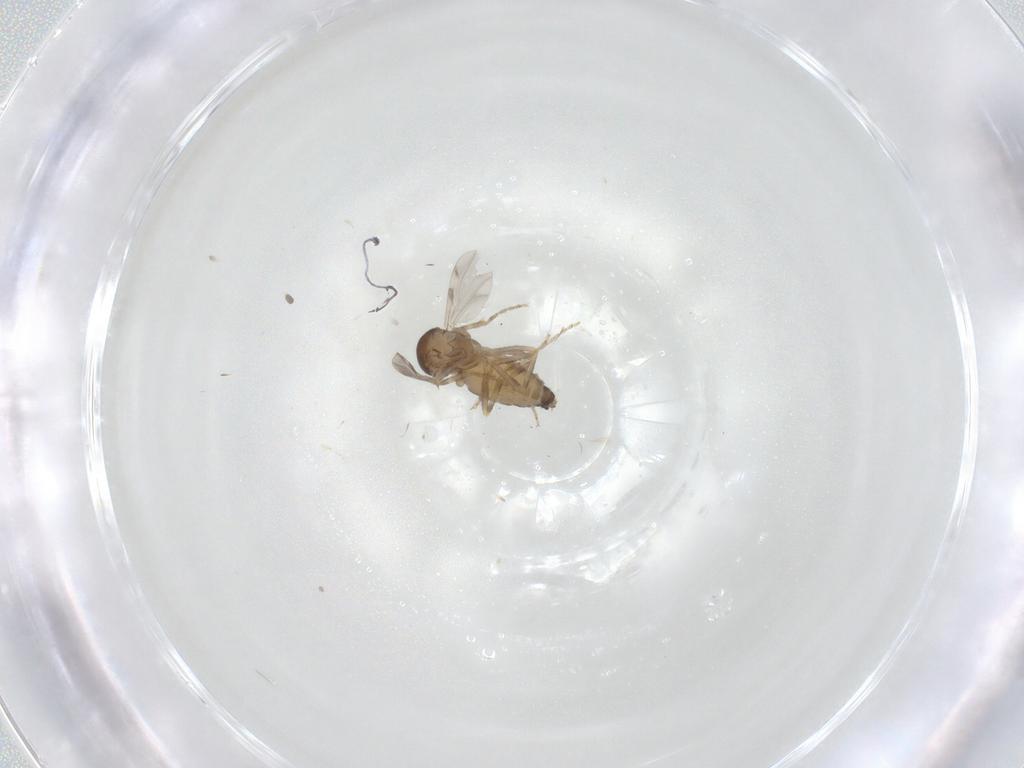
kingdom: Animalia
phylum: Arthropoda
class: Insecta
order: Diptera
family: Ceratopogonidae
